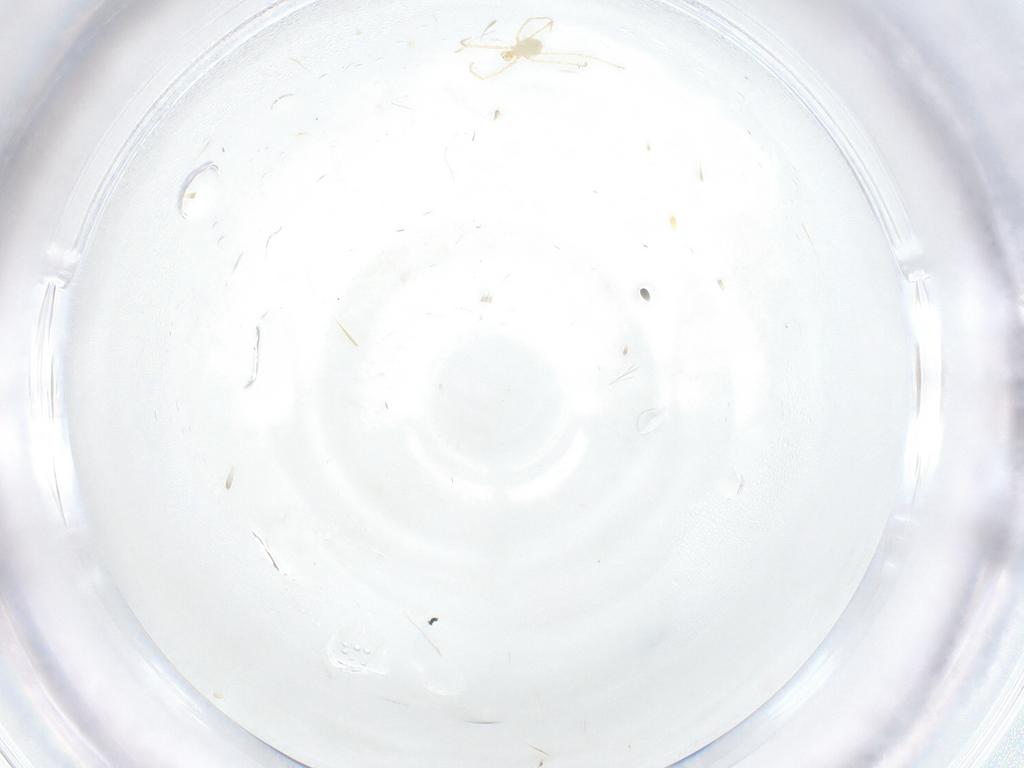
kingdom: Animalia
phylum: Arthropoda
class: Arachnida
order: Trombidiformes
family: Erythraeidae
